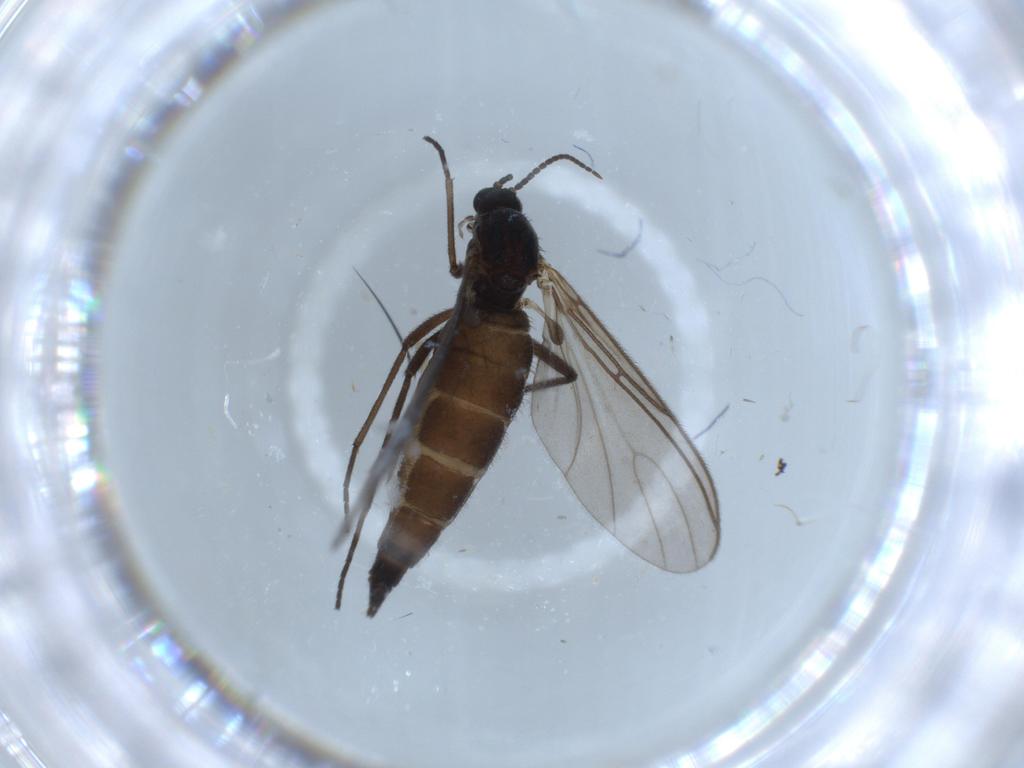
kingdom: Animalia
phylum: Arthropoda
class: Insecta
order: Diptera
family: Sciaridae
